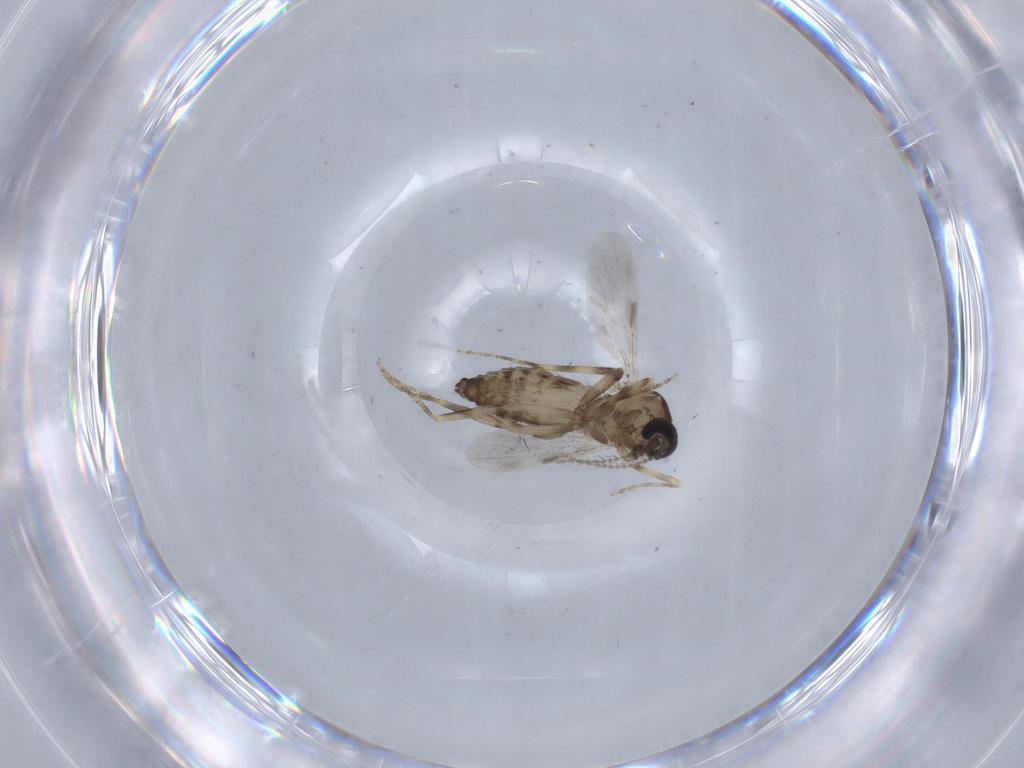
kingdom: Animalia
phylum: Arthropoda
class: Insecta
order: Diptera
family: Ceratopogonidae
